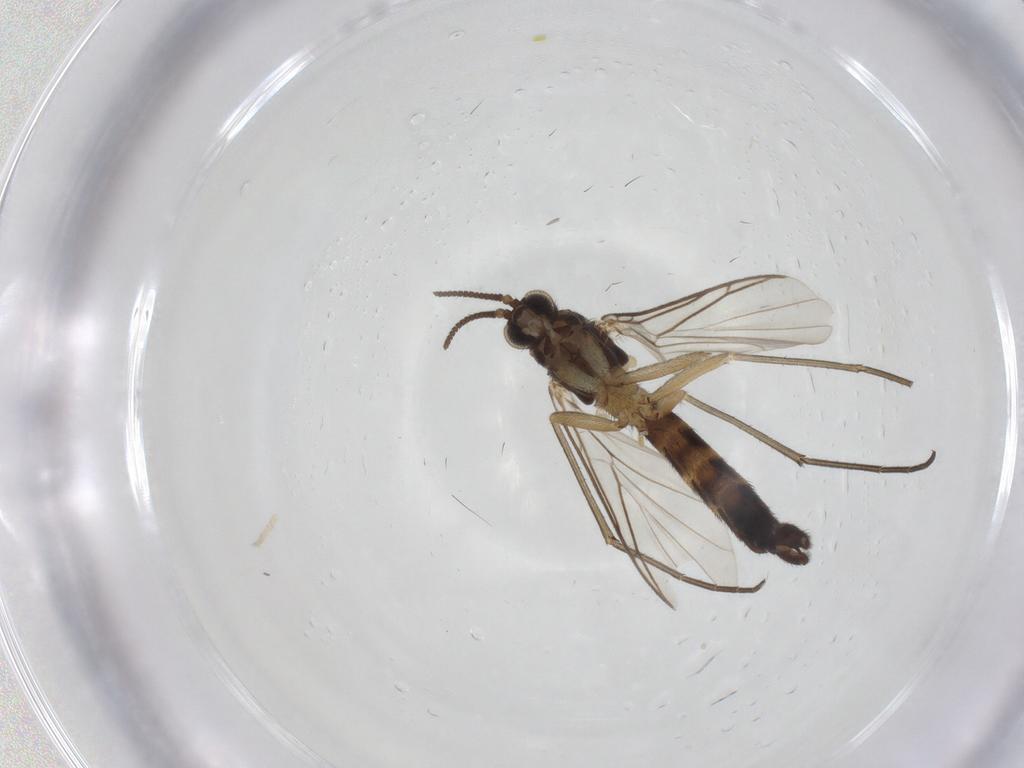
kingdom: Animalia
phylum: Arthropoda
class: Insecta
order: Diptera
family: Keroplatidae
